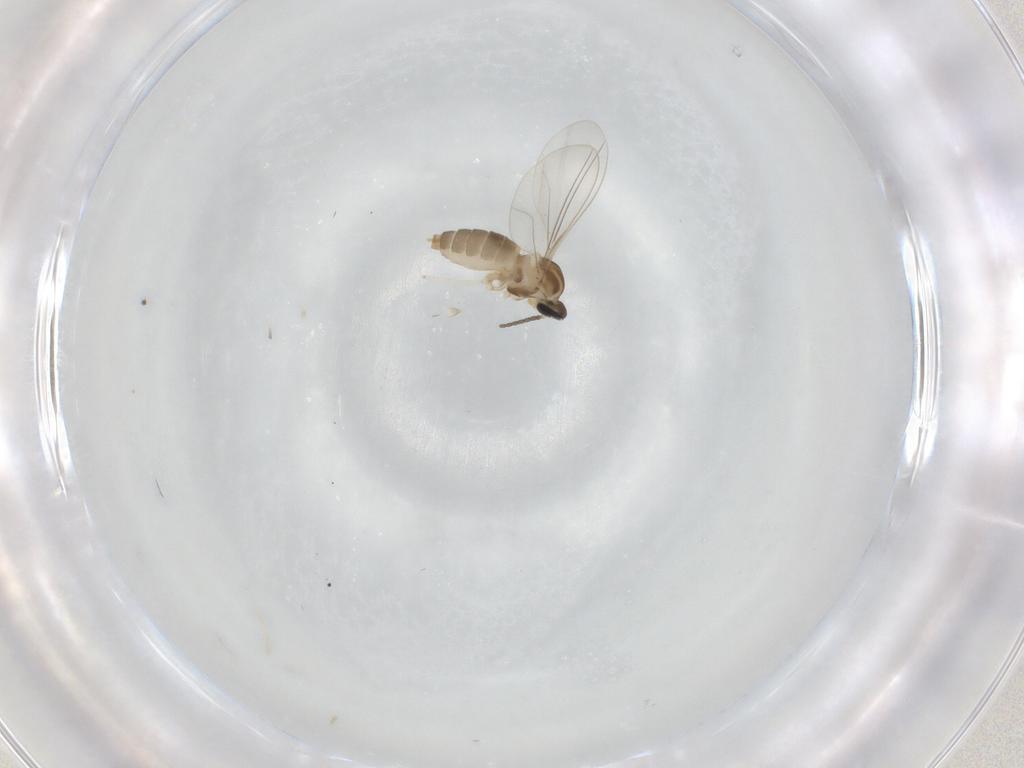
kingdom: Animalia
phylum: Arthropoda
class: Insecta
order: Diptera
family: Cecidomyiidae
